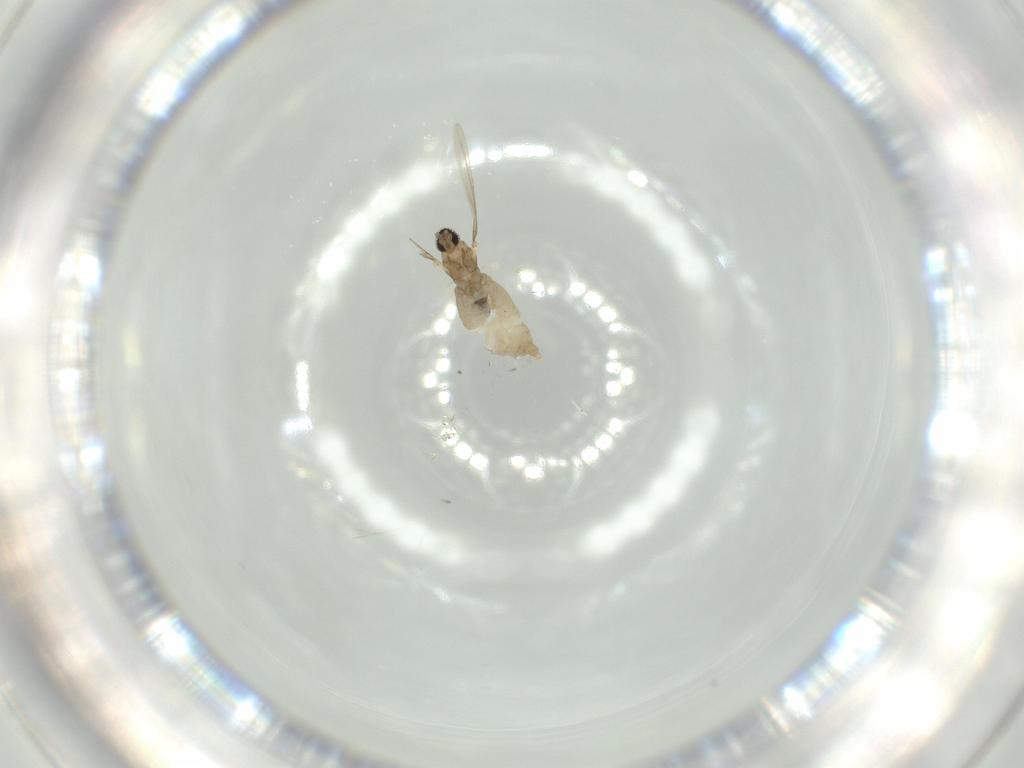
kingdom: Animalia
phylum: Arthropoda
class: Insecta
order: Diptera
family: Cecidomyiidae
